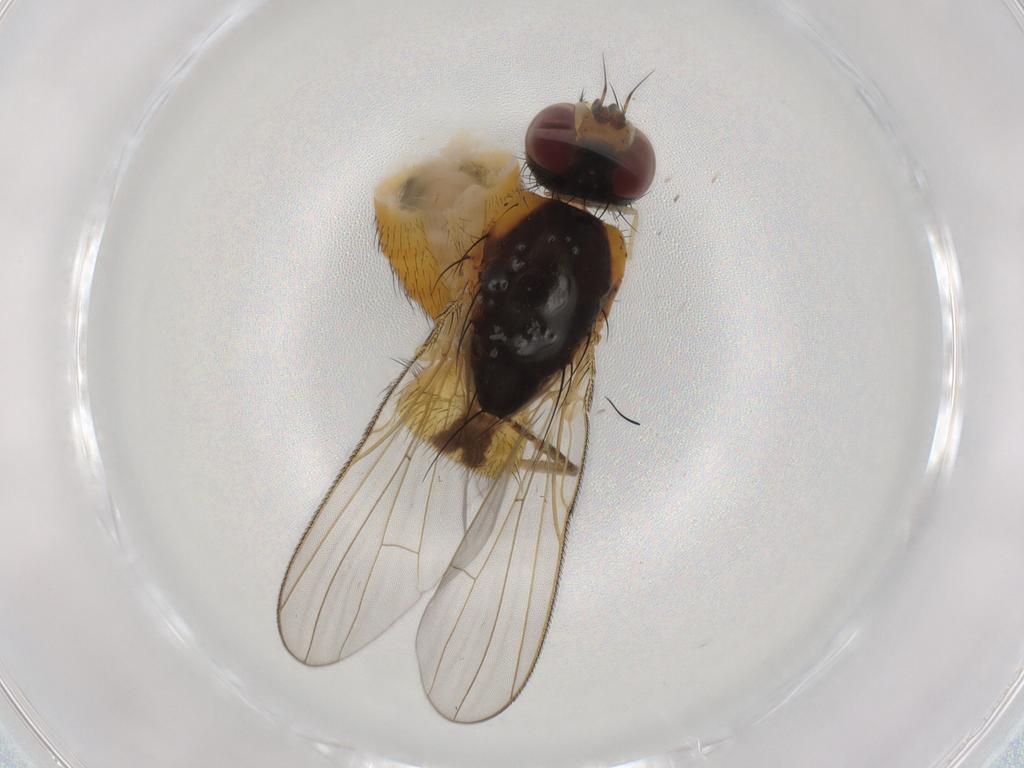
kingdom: Animalia
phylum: Arthropoda
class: Insecta
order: Diptera
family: Muscidae
